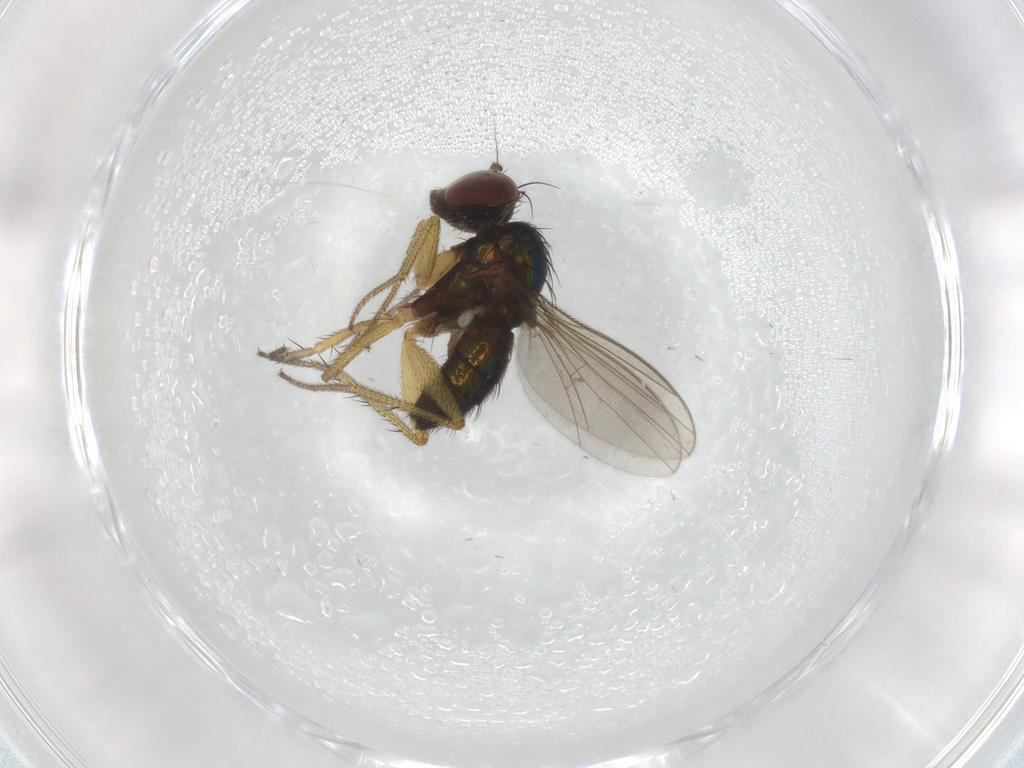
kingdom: Animalia
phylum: Arthropoda
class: Insecta
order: Diptera
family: Dolichopodidae
